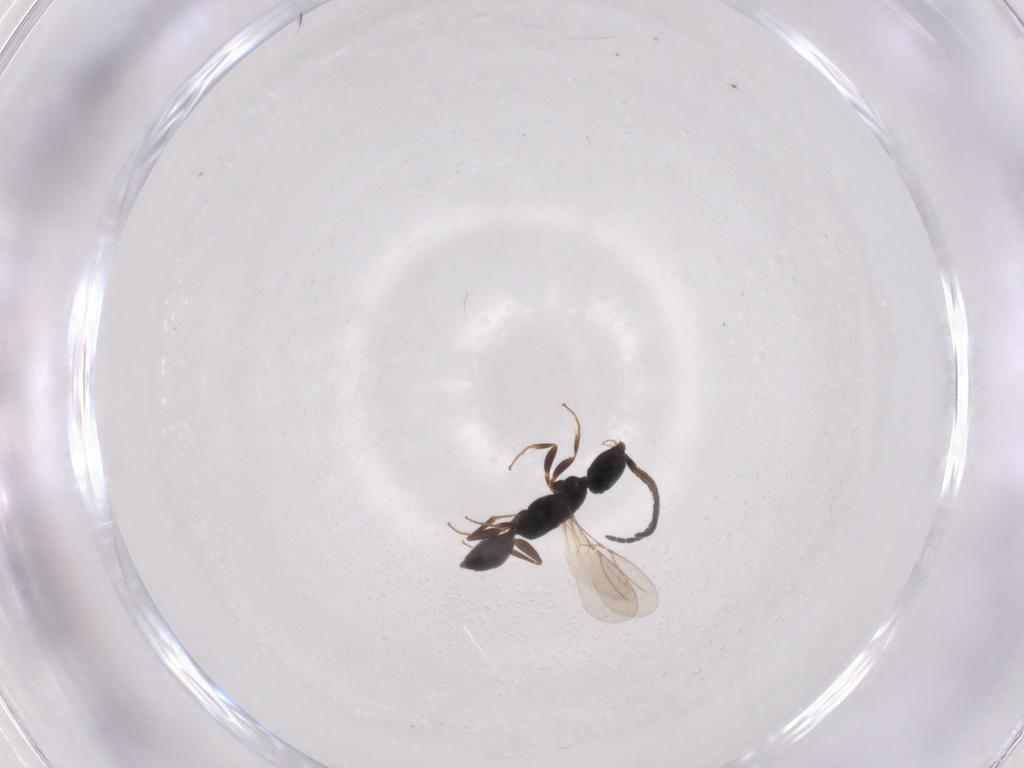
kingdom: Animalia
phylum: Arthropoda
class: Insecta
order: Hymenoptera
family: Bethylidae
